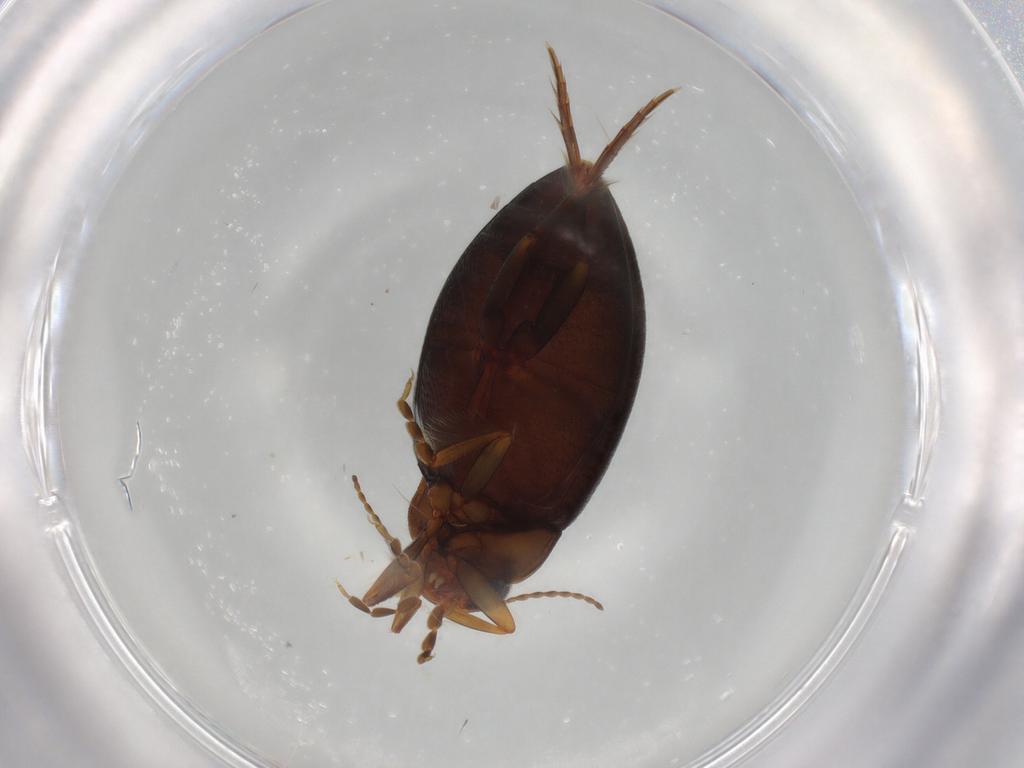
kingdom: Animalia
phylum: Arthropoda
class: Insecta
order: Coleoptera
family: Dytiscidae
